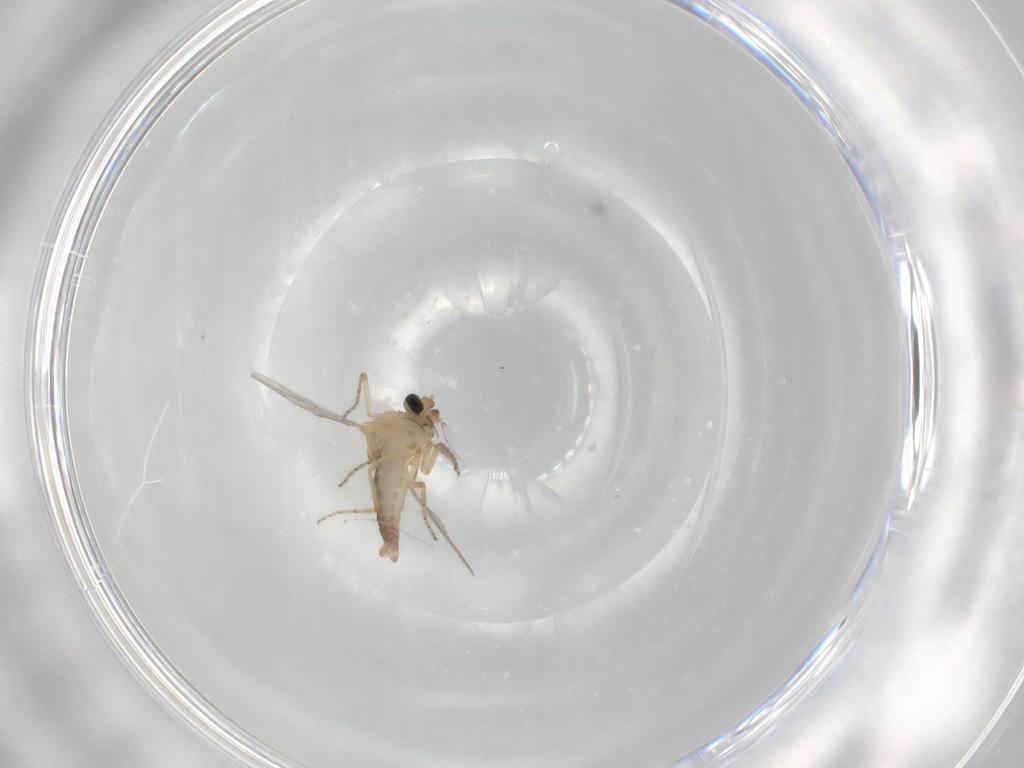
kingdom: Animalia
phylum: Arthropoda
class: Insecta
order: Diptera
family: Ceratopogonidae
